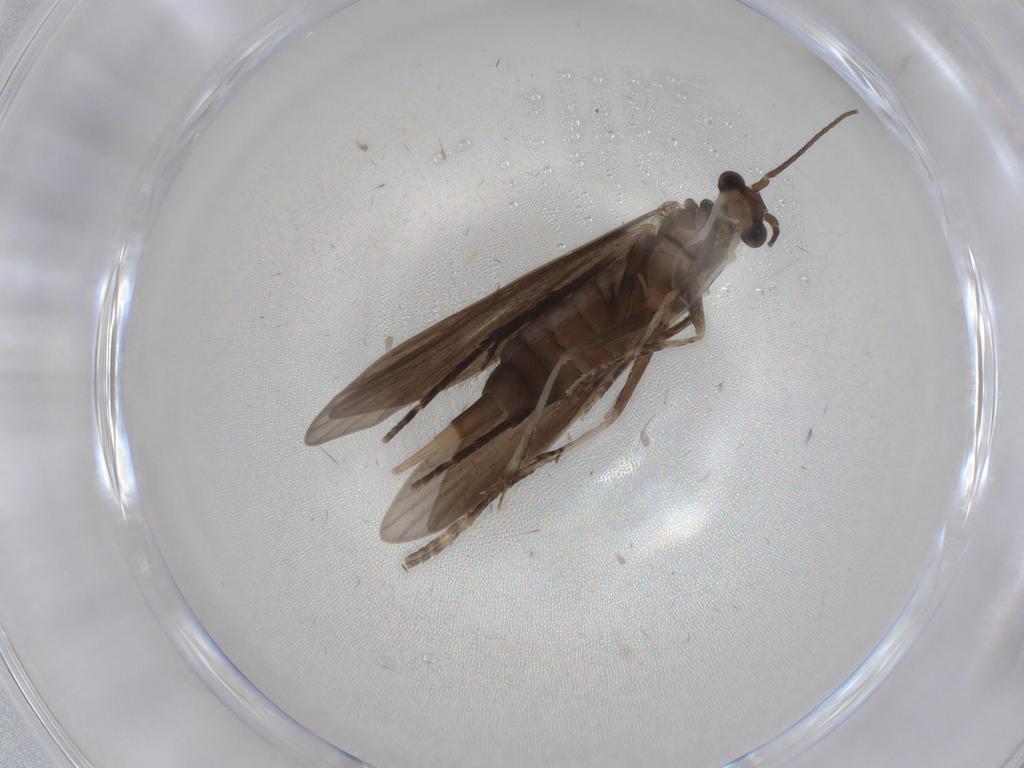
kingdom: Animalia
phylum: Arthropoda
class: Insecta
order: Trichoptera
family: Xiphocentronidae
